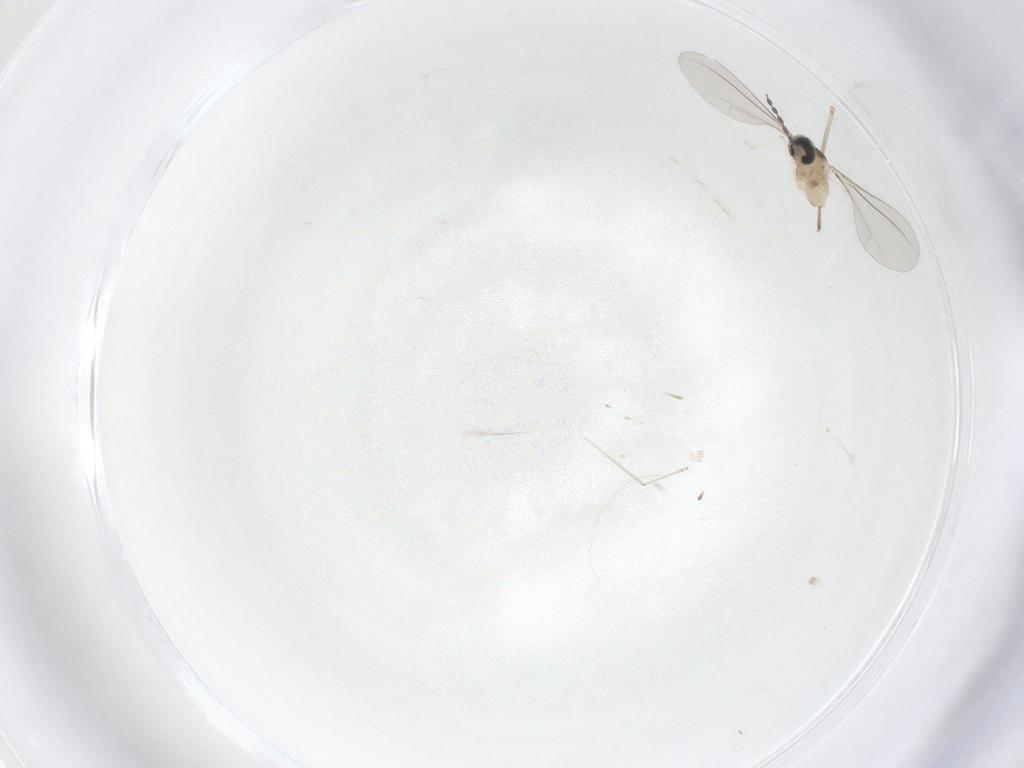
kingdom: Animalia
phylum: Arthropoda
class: Insecta
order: Diptera
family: Cecidomyiidae
